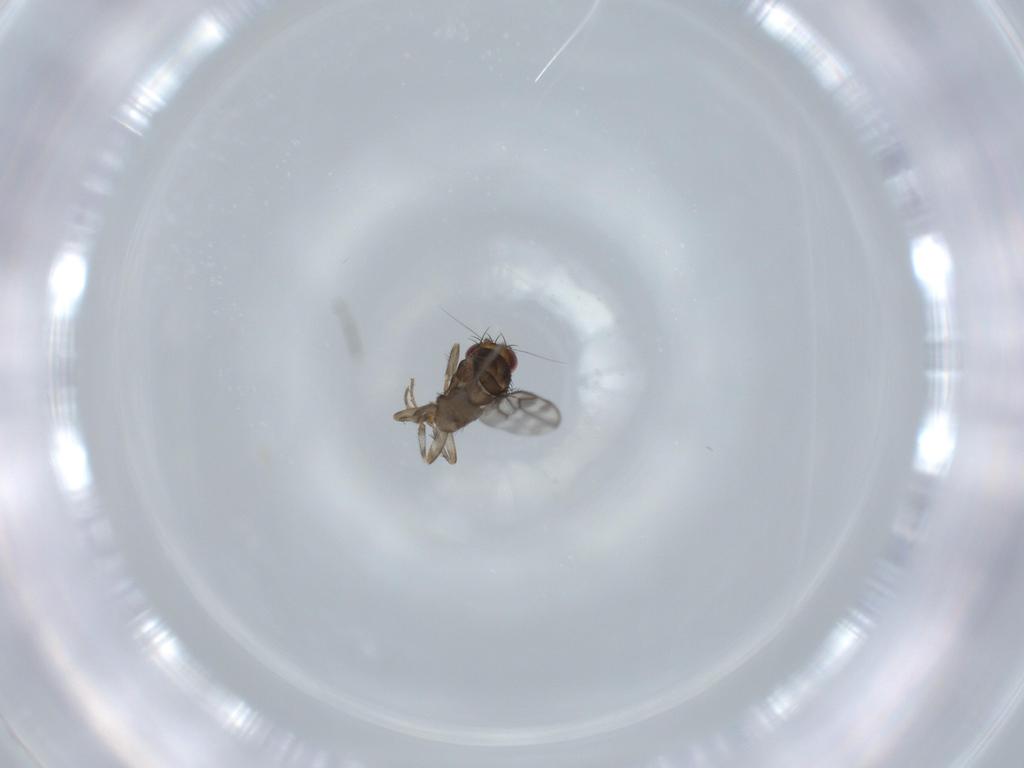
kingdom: Animalia
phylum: Arthropoda
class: Insecta
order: Diptera
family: Sphaeroceridae
